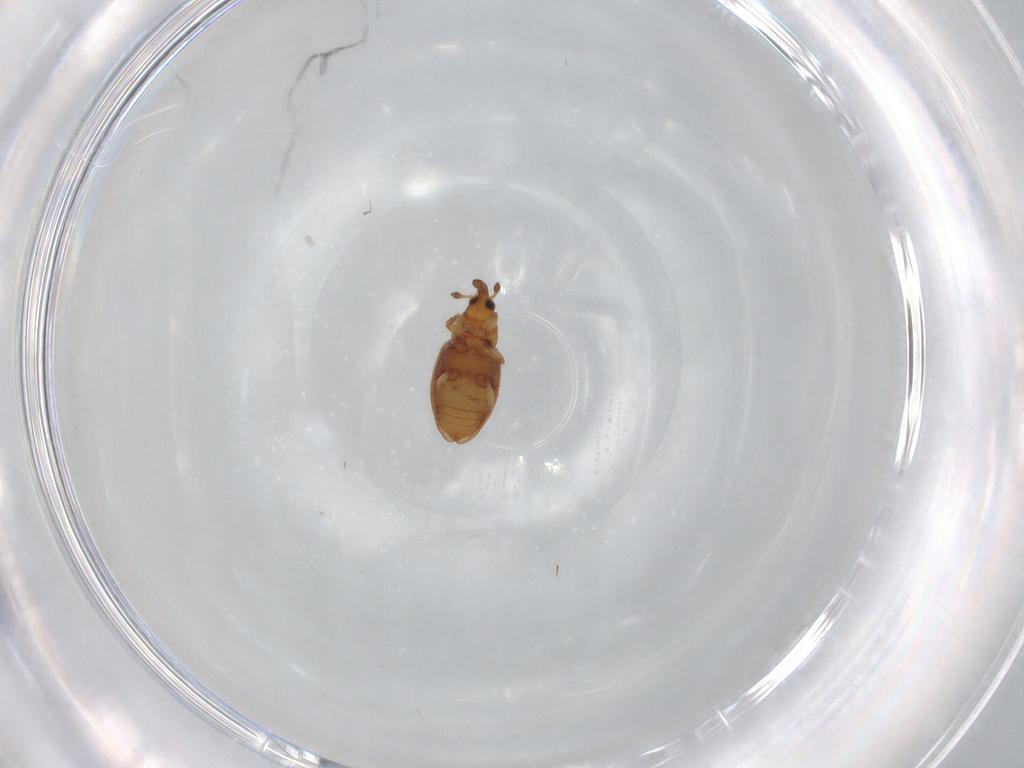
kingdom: Animalia
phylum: Arthropoda
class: Insecta
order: Coleoptera
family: Curculionidae
